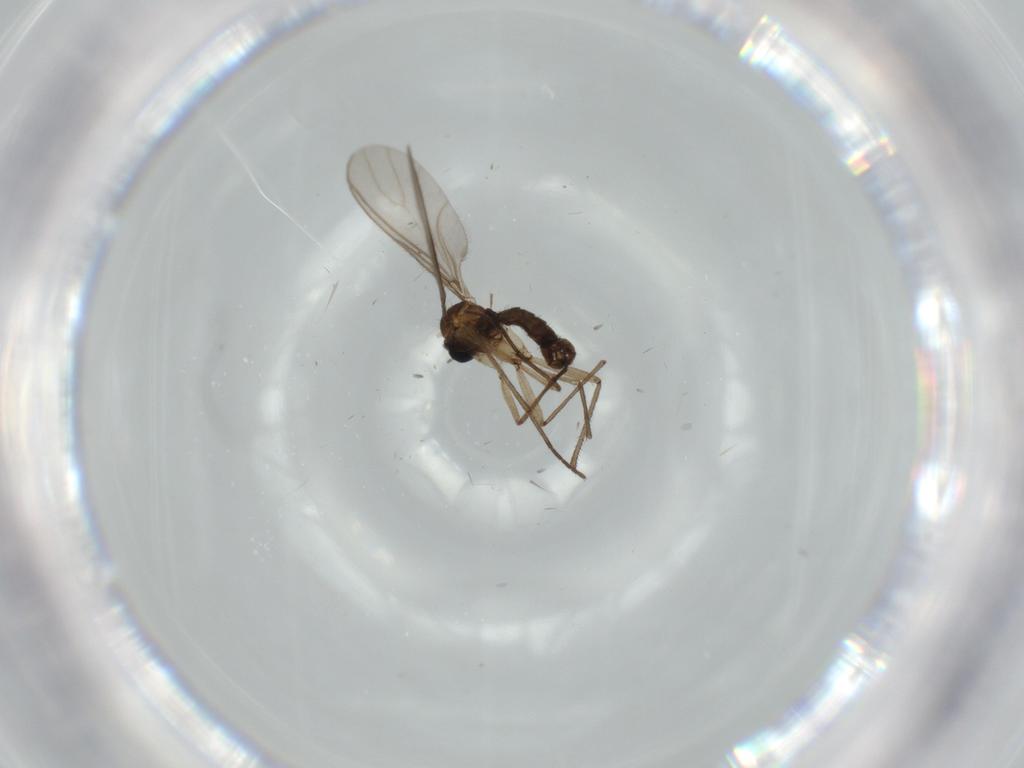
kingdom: Animalia
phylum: Arthropoda
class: Insecta
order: Diptera
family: Sciaridae
